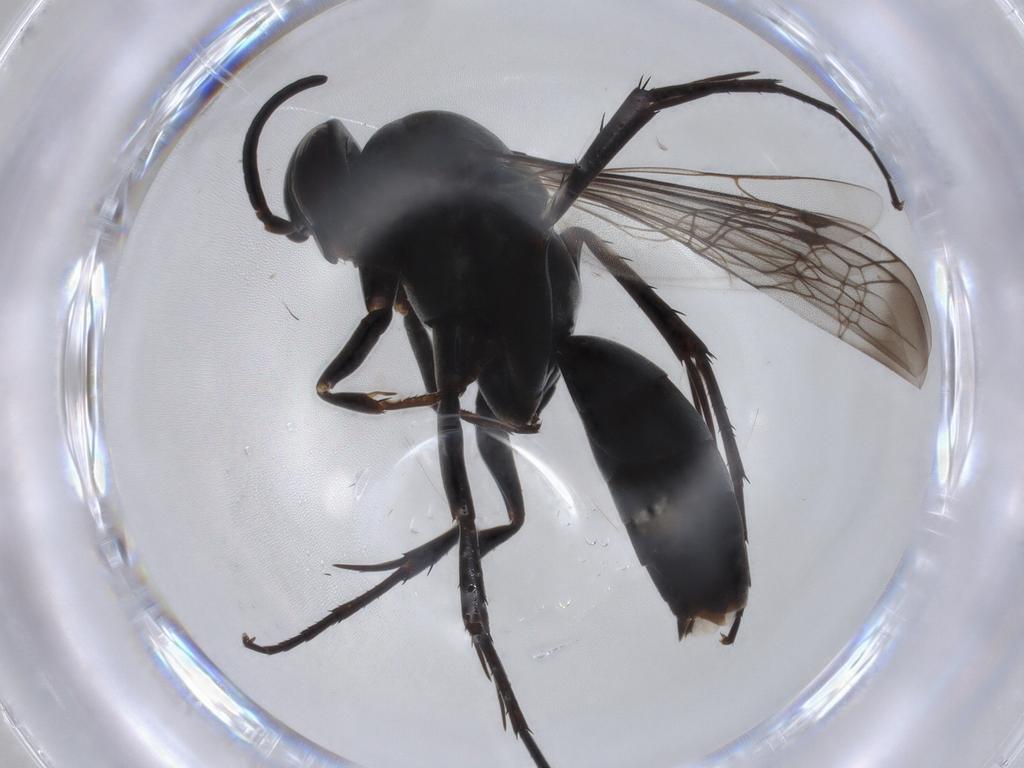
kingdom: Animalia
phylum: Arthropoda
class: Insecta
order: Hymenoptera
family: Pompilidae
